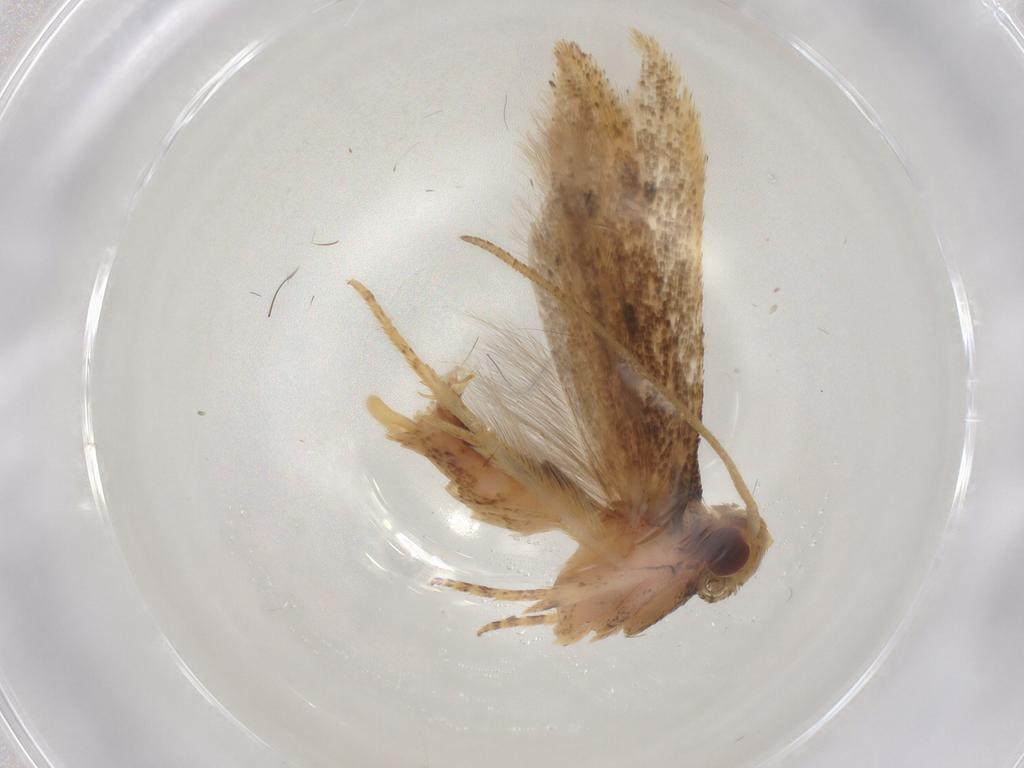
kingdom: Animalia
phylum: Arthropoda
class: Insecta
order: Lepidoptera
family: Gelechiidae
